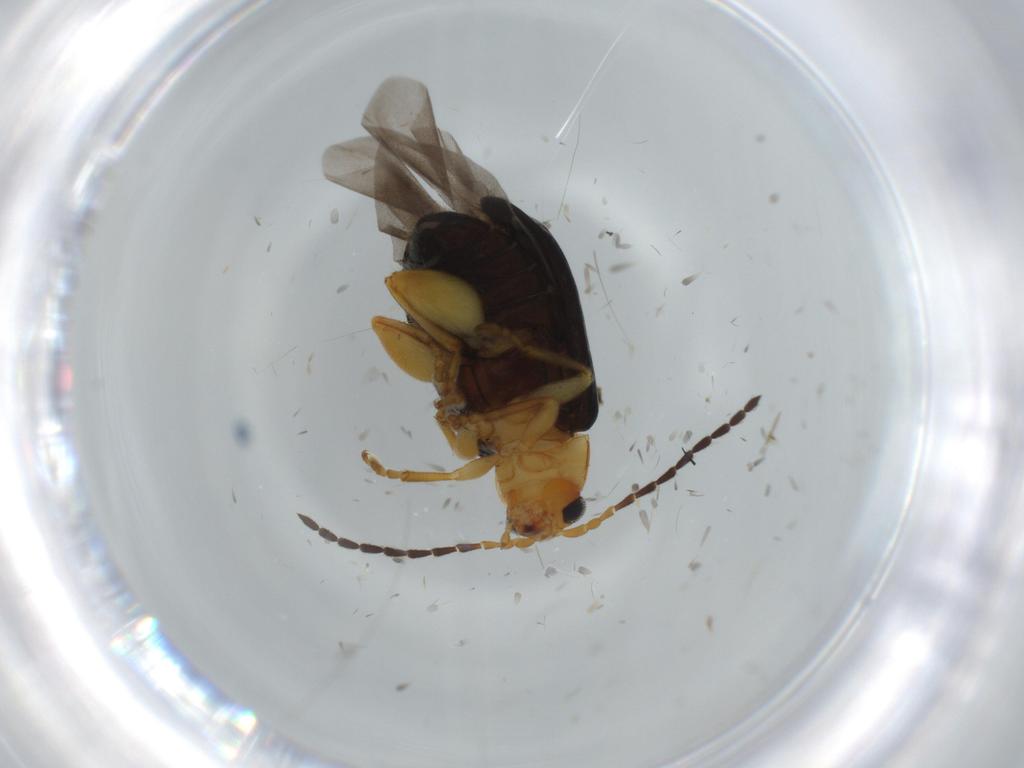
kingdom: Animalia
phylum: Arthropoda
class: Insecta
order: Coleoptera
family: Chrysomelidae
